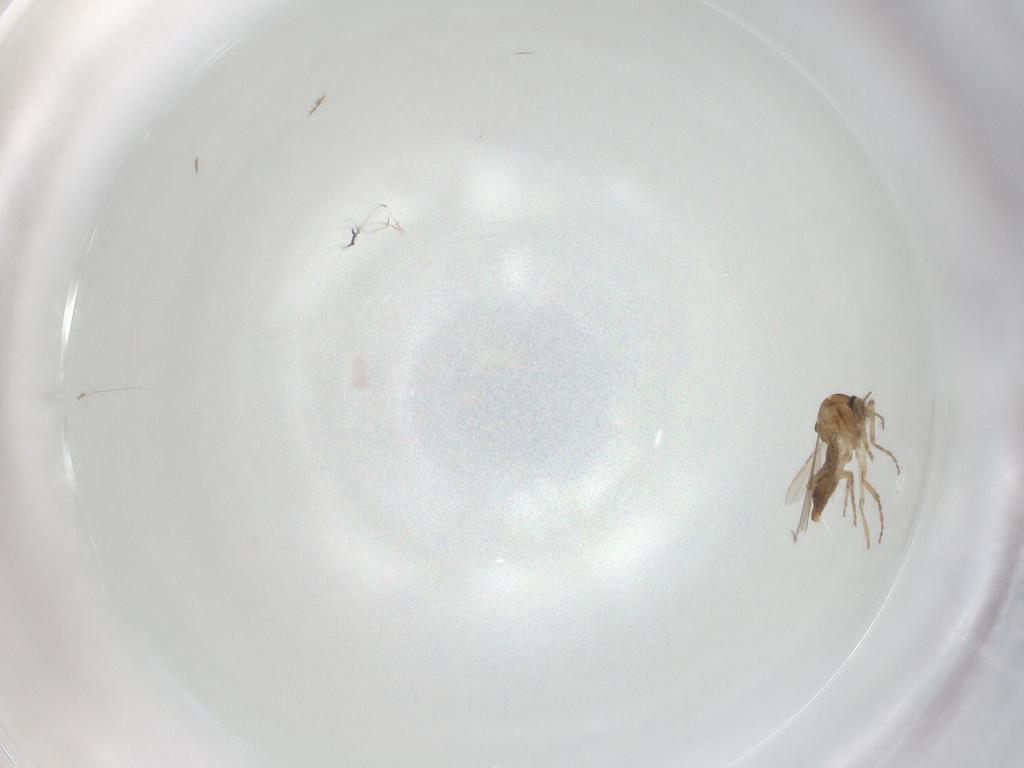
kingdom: Animalia
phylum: Arthropoda
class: Insecta
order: Diptera
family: Ceratopogonidae
